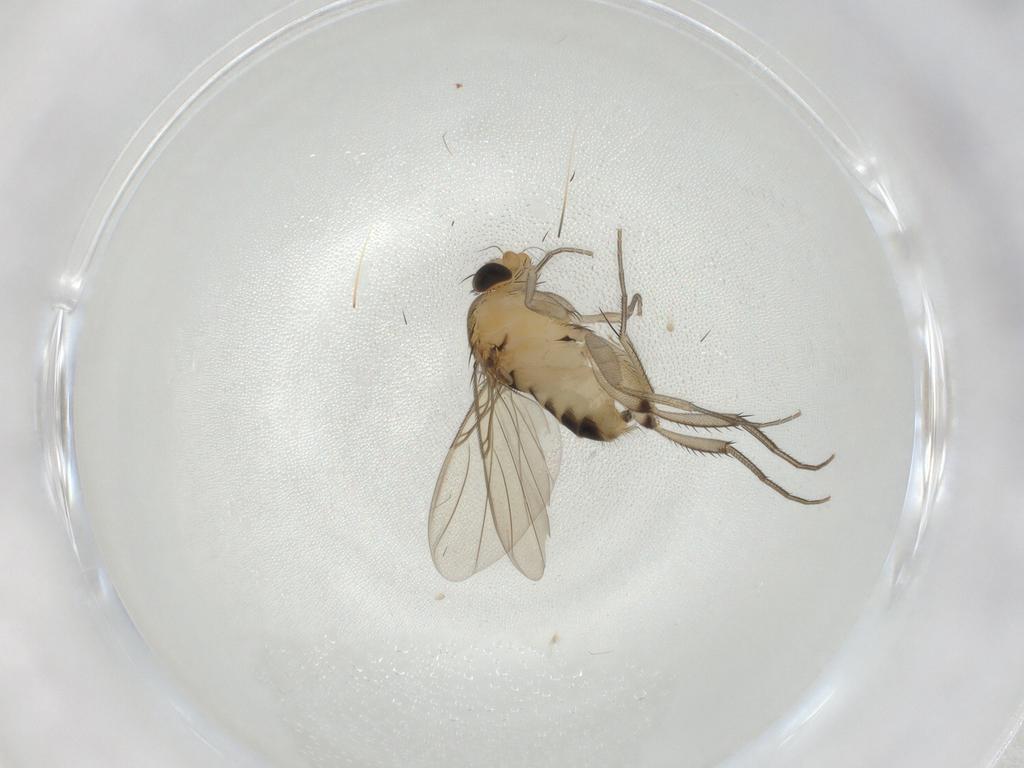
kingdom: Animalia
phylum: Arthropoda
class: Insecta
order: Diptera
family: Phoridae
